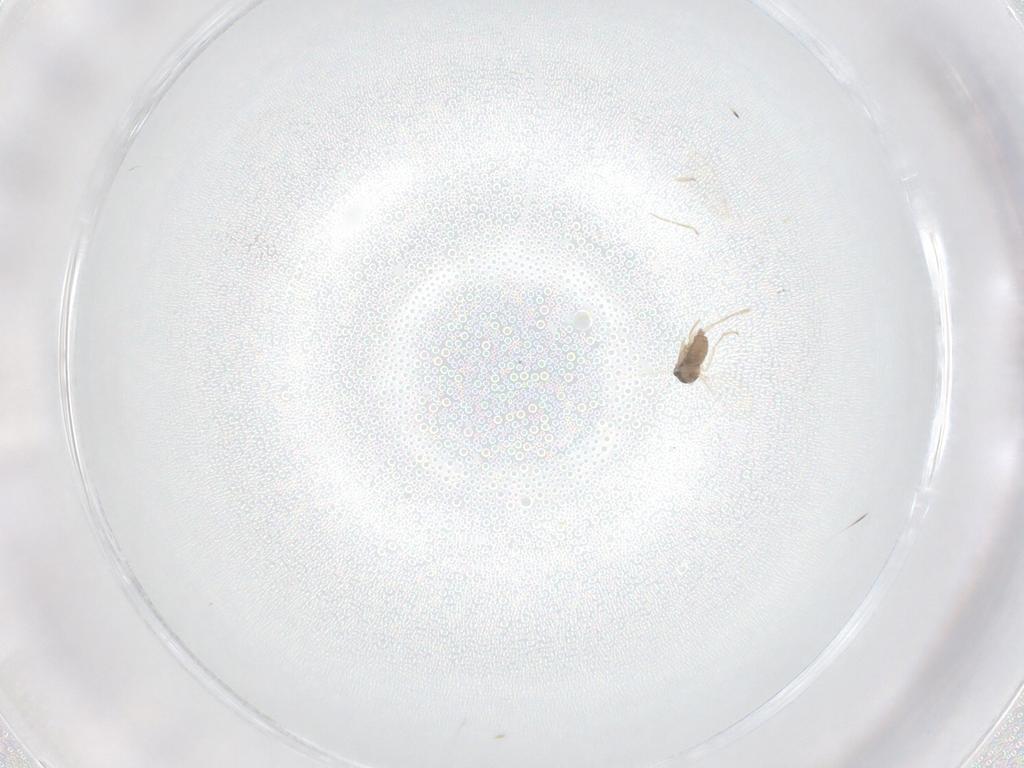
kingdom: Animalia
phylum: Arthropoda
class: Insecta
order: Diptera
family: Cecidomyiidae
